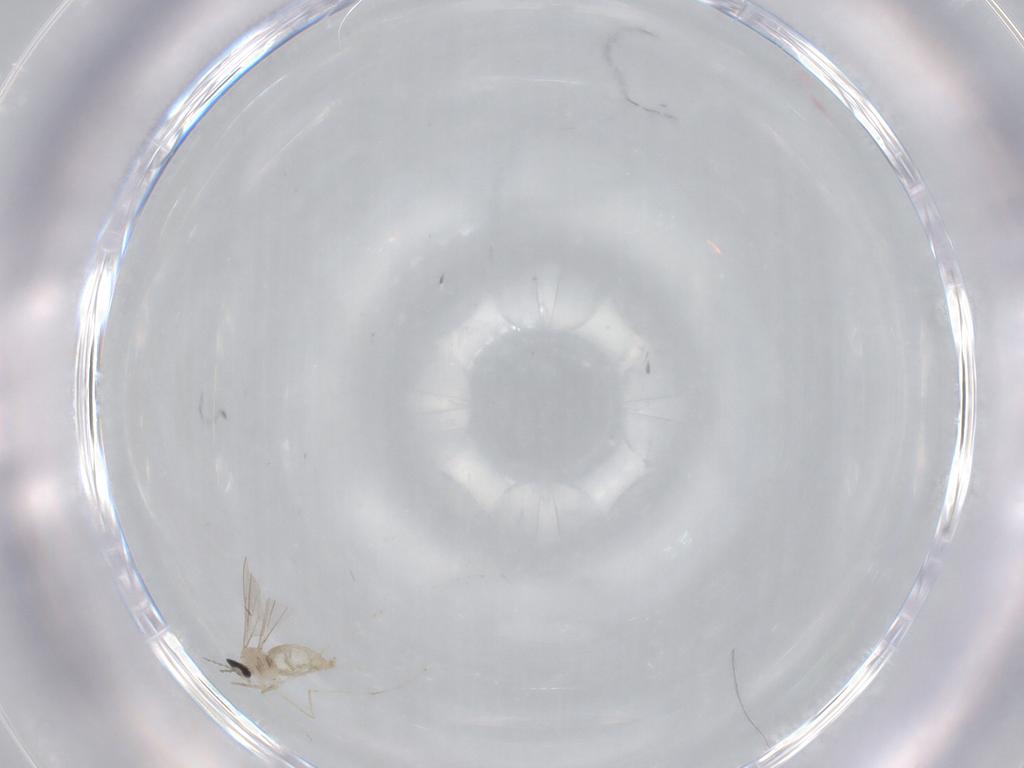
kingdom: Animalia
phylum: Arthropoda
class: Insecta
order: Diptera
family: Cecidomyiidae
